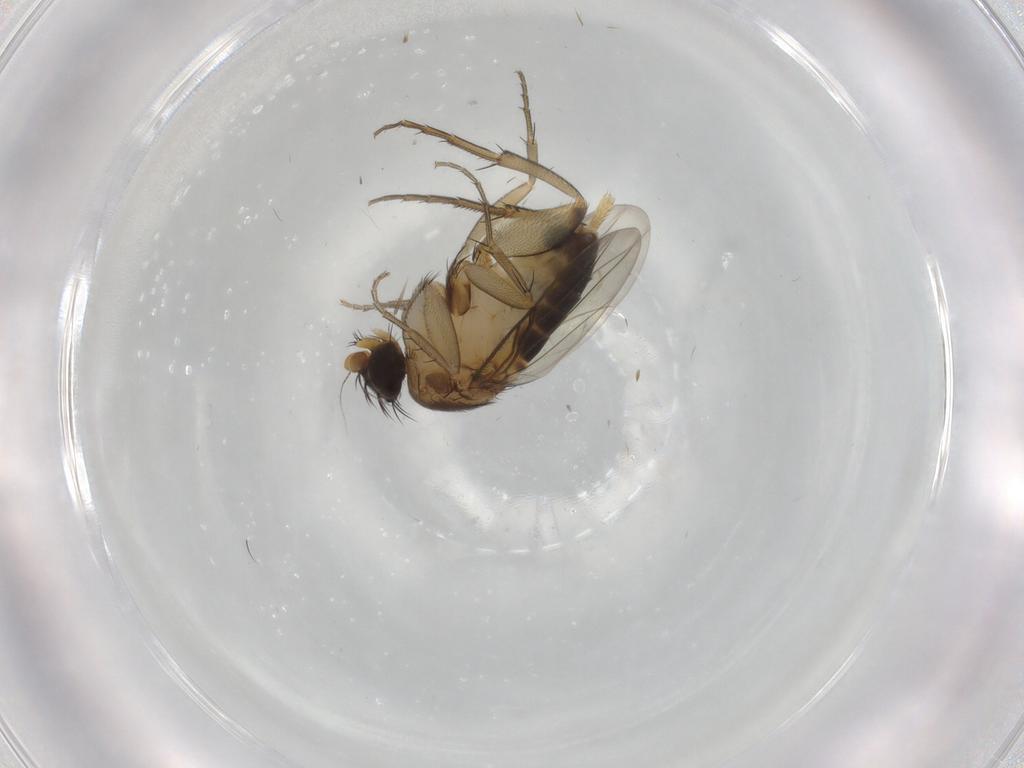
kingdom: Animalia
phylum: Arthropoda
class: Insecta
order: Diptera
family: Phoridae
